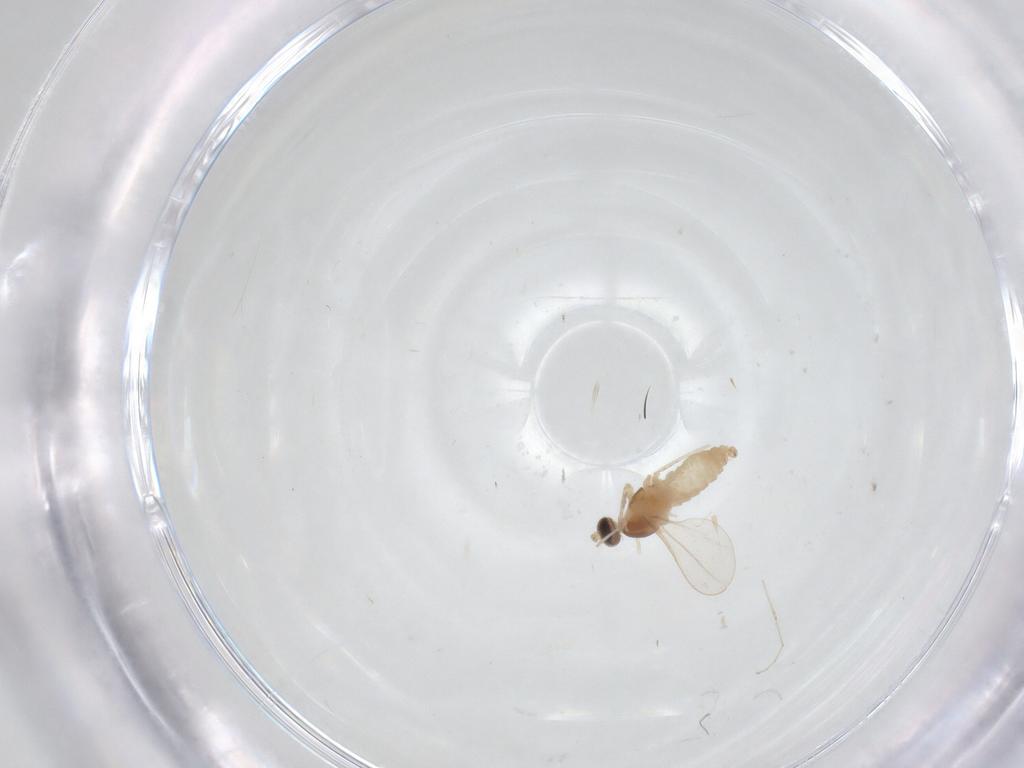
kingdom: Animalia
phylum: Arthropoda
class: Insecta
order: Diptera
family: Cecidomyiidae
